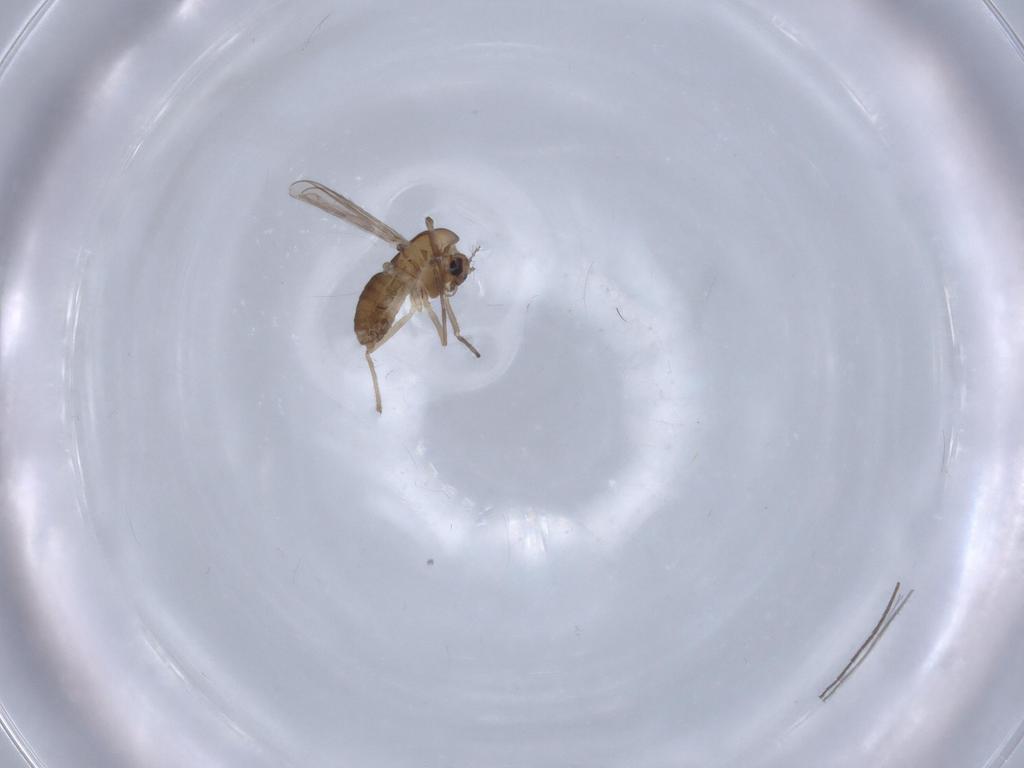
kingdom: Animalia
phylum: Arthropoda
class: Insecta
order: Diptera
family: Chironomidae
